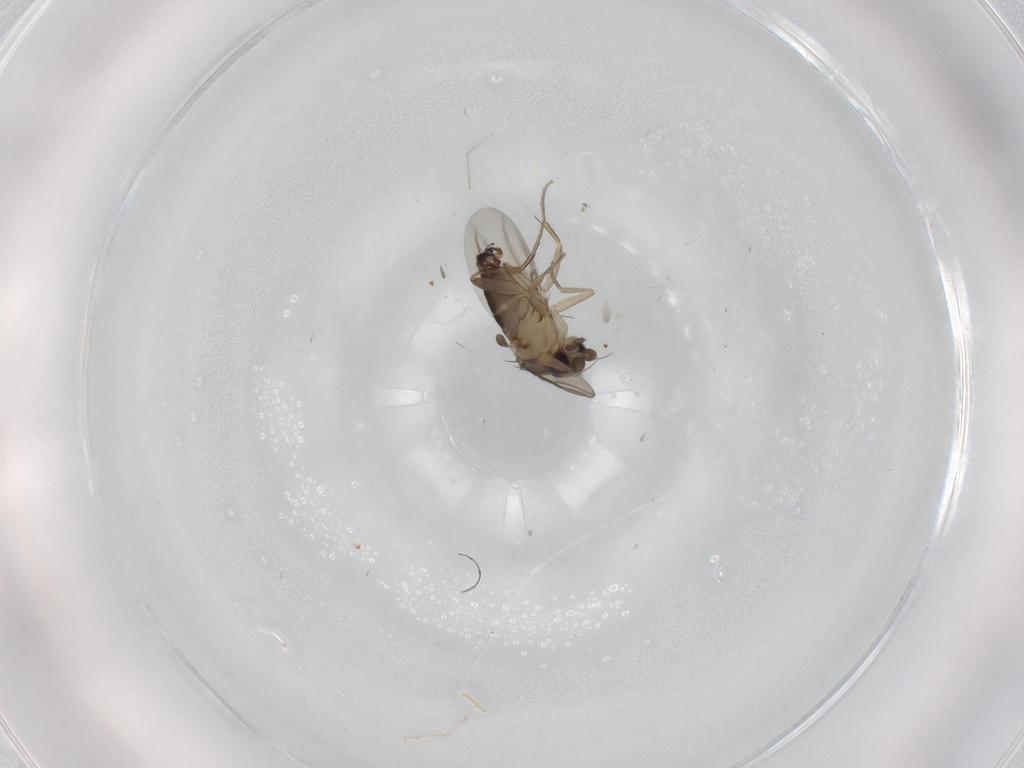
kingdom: Animalia
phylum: Arthropoda
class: Insecta
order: Diptera
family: Phoridae
